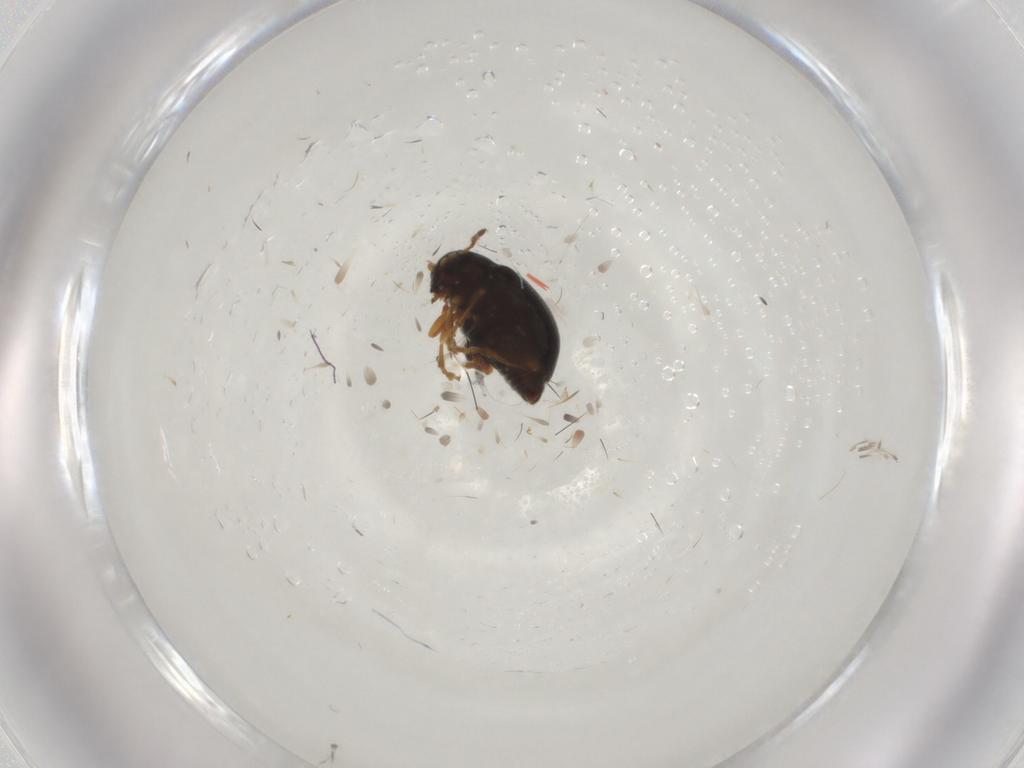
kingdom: Animalia
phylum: Arthropoda
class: Insecta
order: Coleoptera
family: Chrysomelidae
